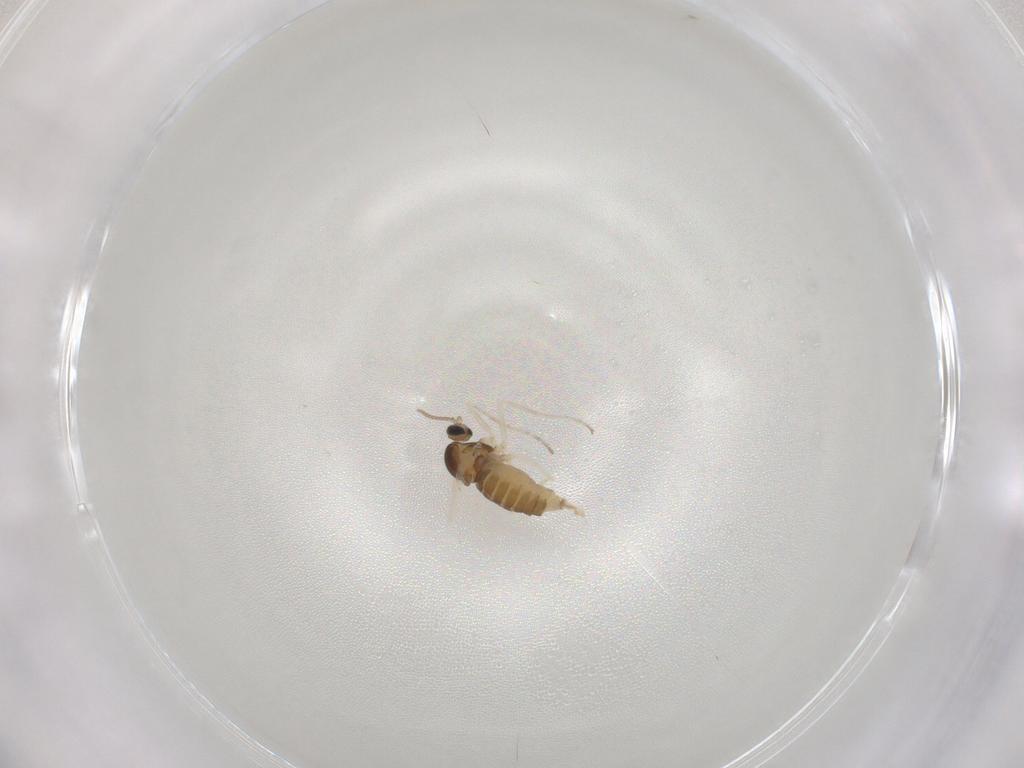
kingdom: Animalia
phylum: Arthropoda
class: Insecta
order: Diptera
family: Cecidomyiidae
